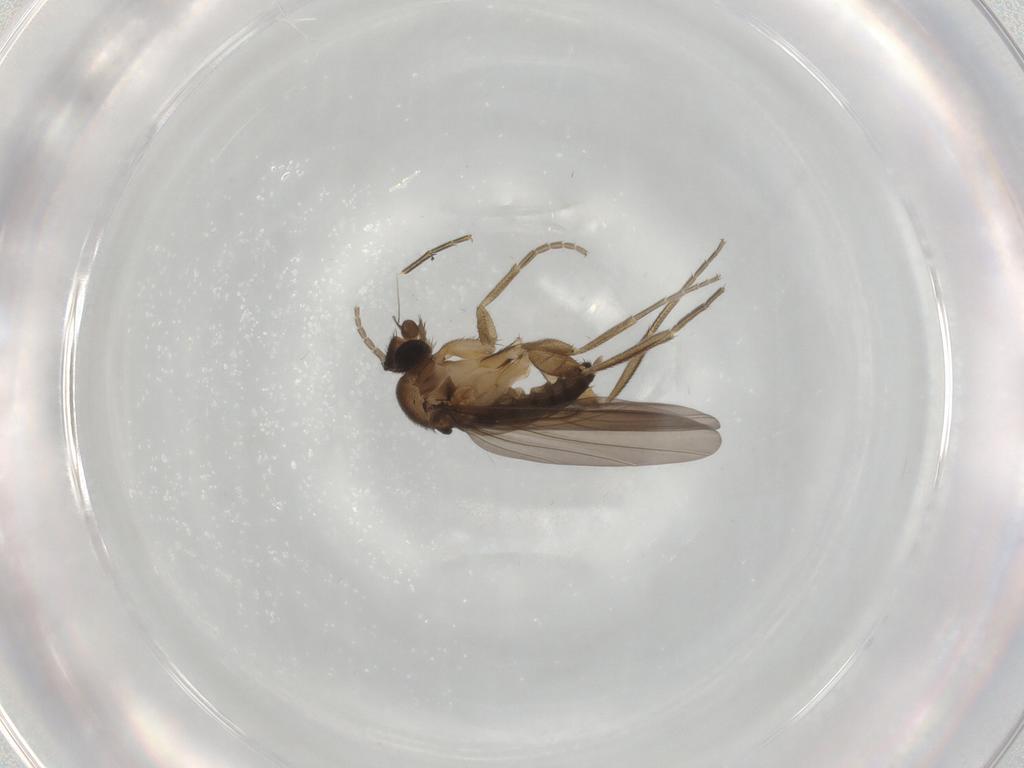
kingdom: Animalia
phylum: Arthropoda
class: Insecta
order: Diptera
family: Phoridae
